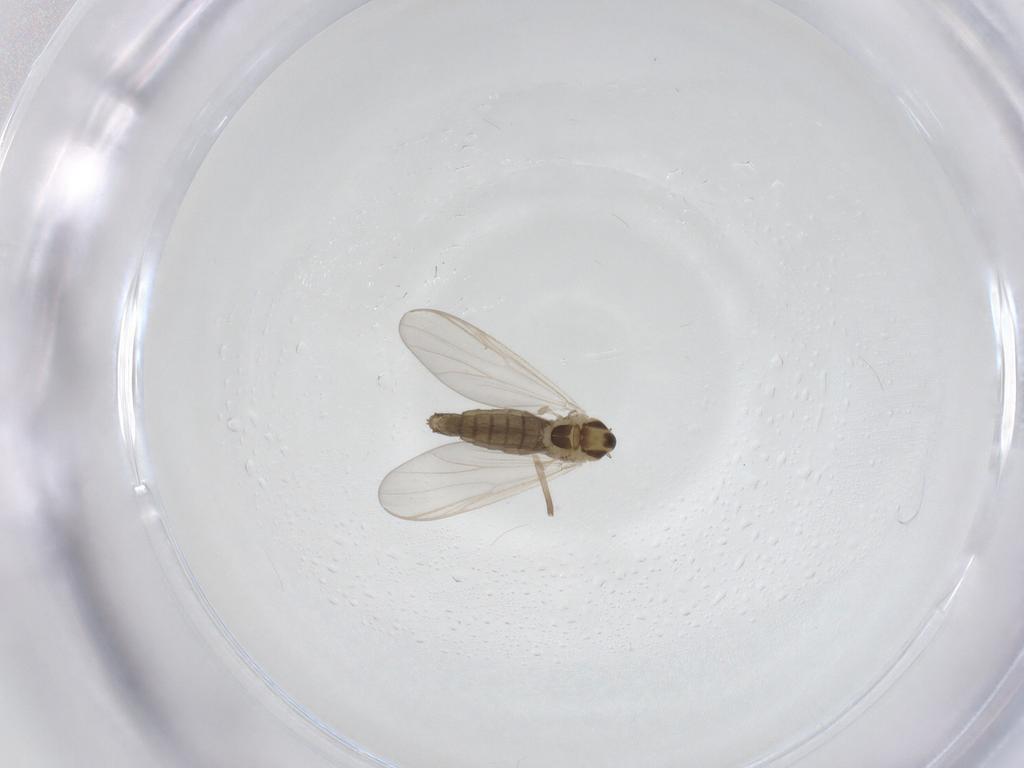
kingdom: Animalia
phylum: Arthropoda
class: Insecta
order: Diptera
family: Chironomidae
